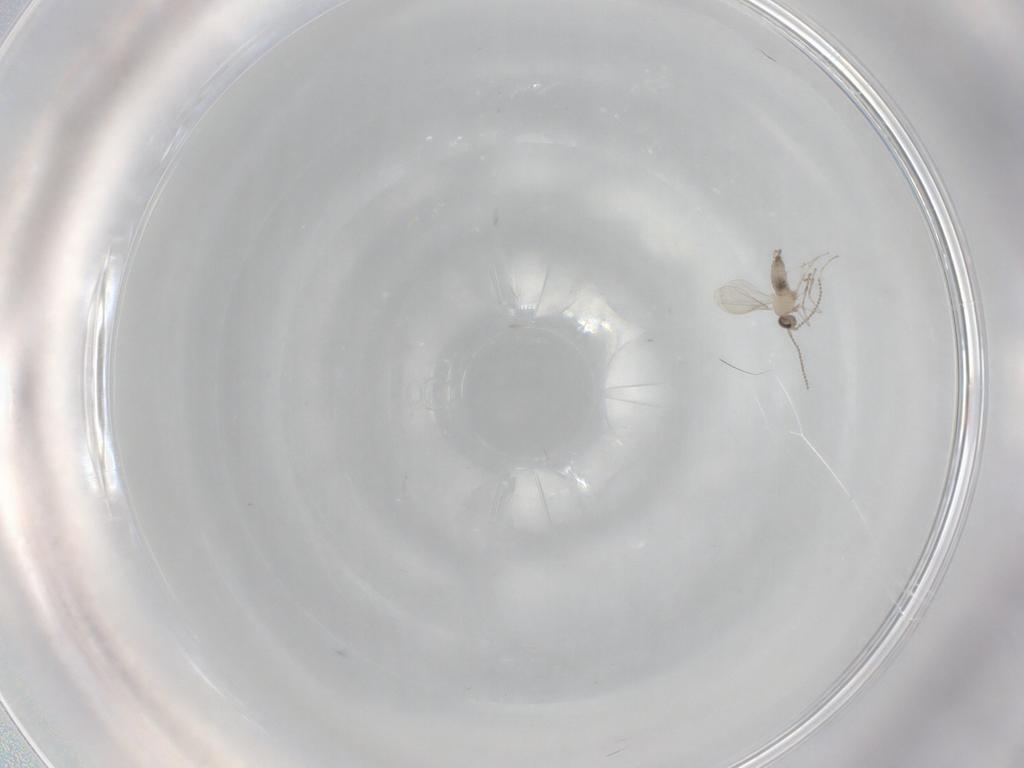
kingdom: Animalia
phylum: Arthropoda
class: Insecta
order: Diptera
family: Cecidomyiidae
